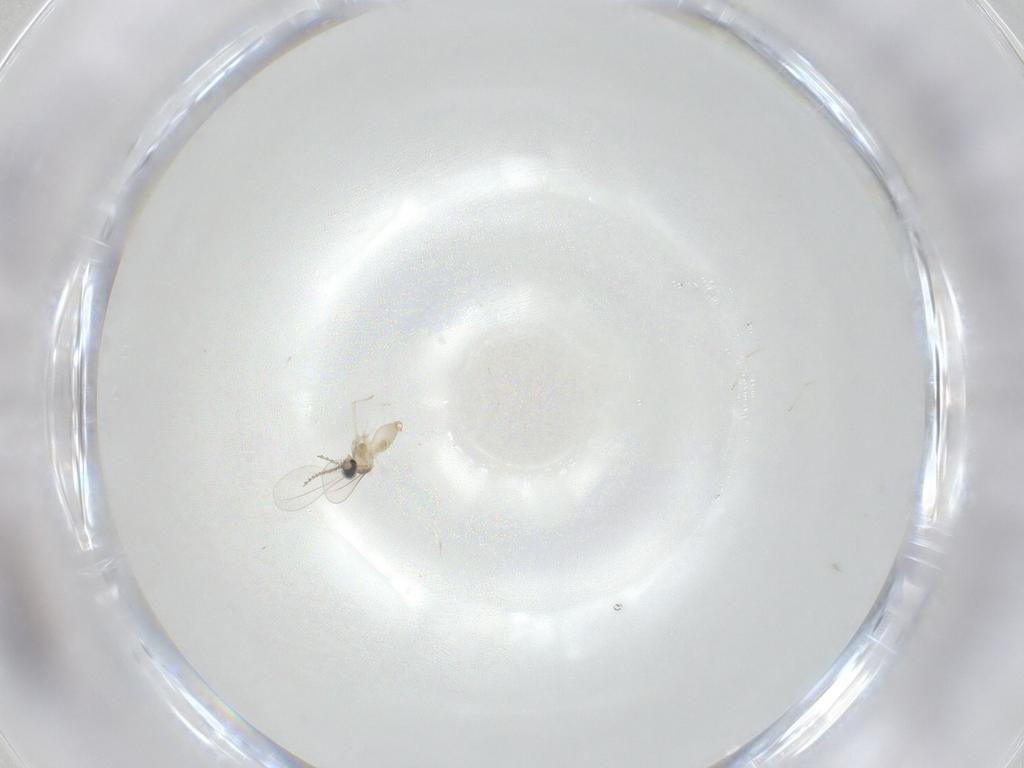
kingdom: Animalia
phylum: Arthropoda
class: Insecta
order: Diptera
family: Cecidomyiidae
